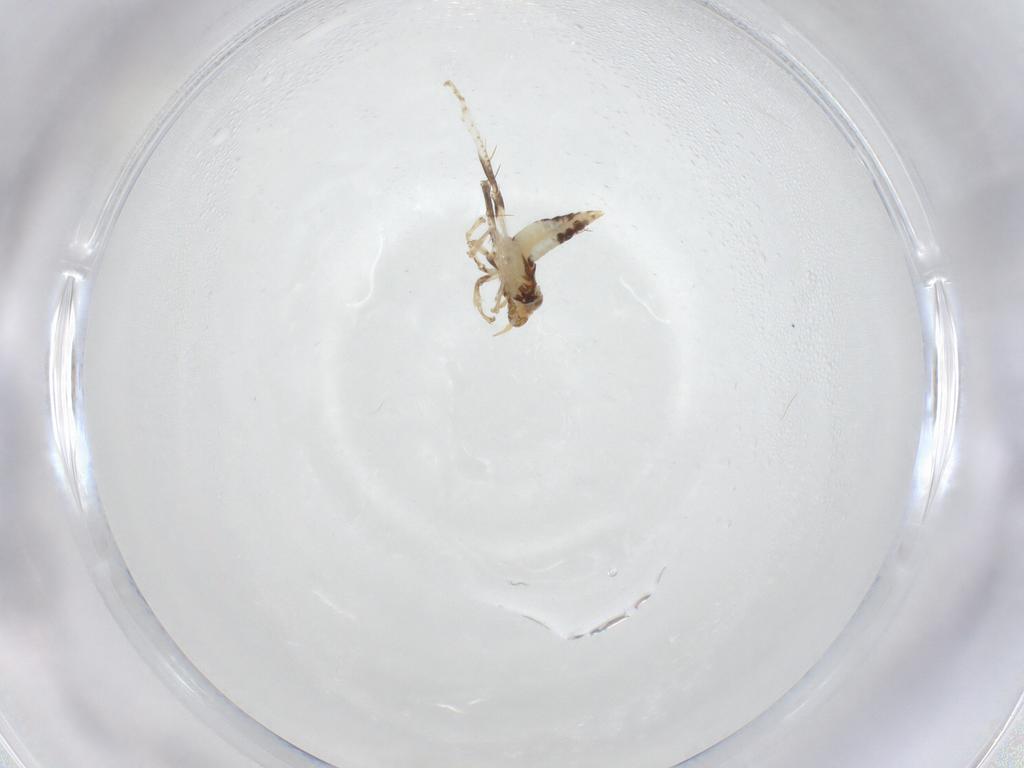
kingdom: Animalia
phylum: Arthropoda
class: Insecta
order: Hemiptera
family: Cicadellidae
